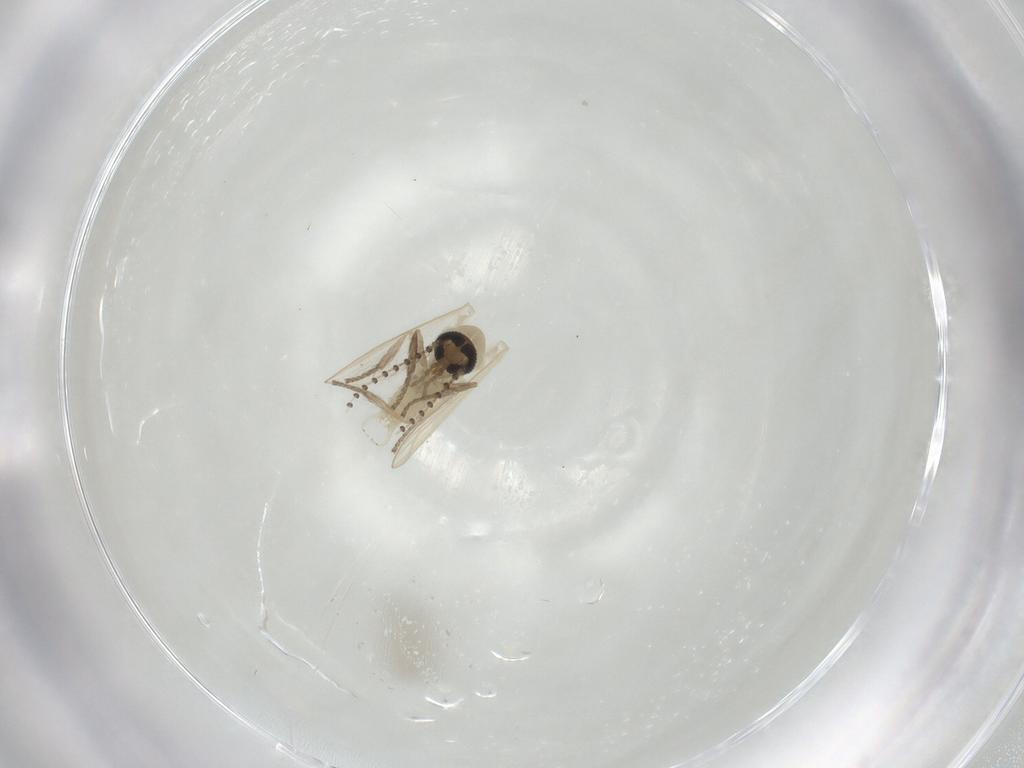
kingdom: Animalia
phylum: Arthropoda
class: Insecta
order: Diptera
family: Psychodidae
